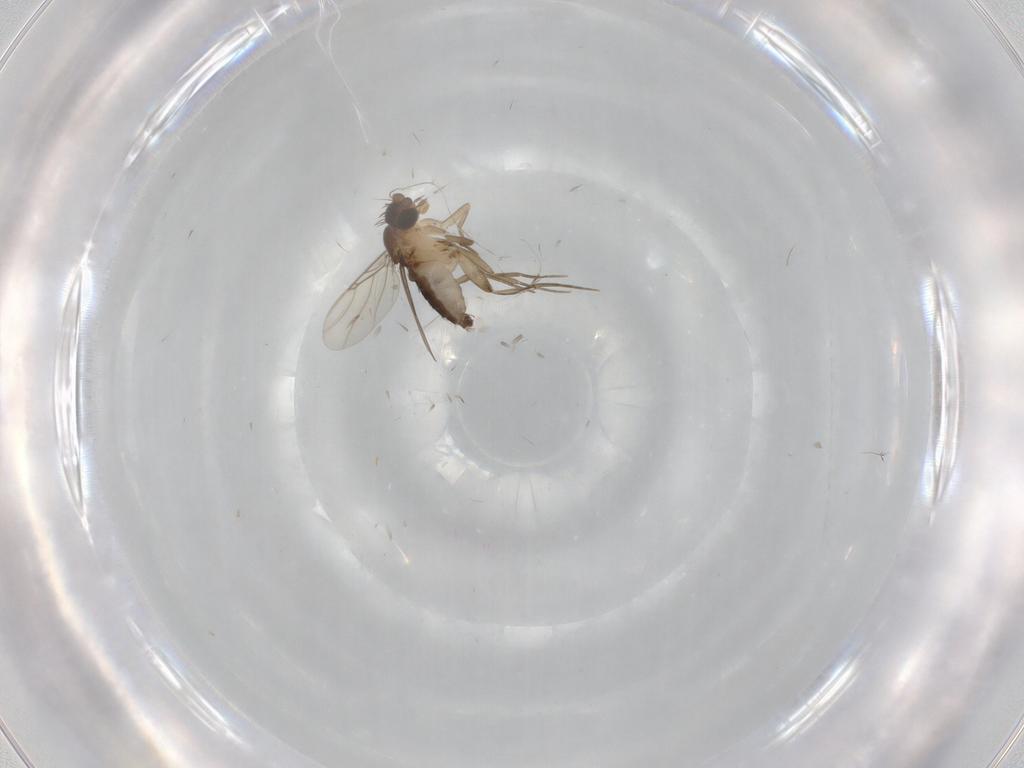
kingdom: Animalia
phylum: Arthropoda
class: Insecta
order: Diptera
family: Phoridae
